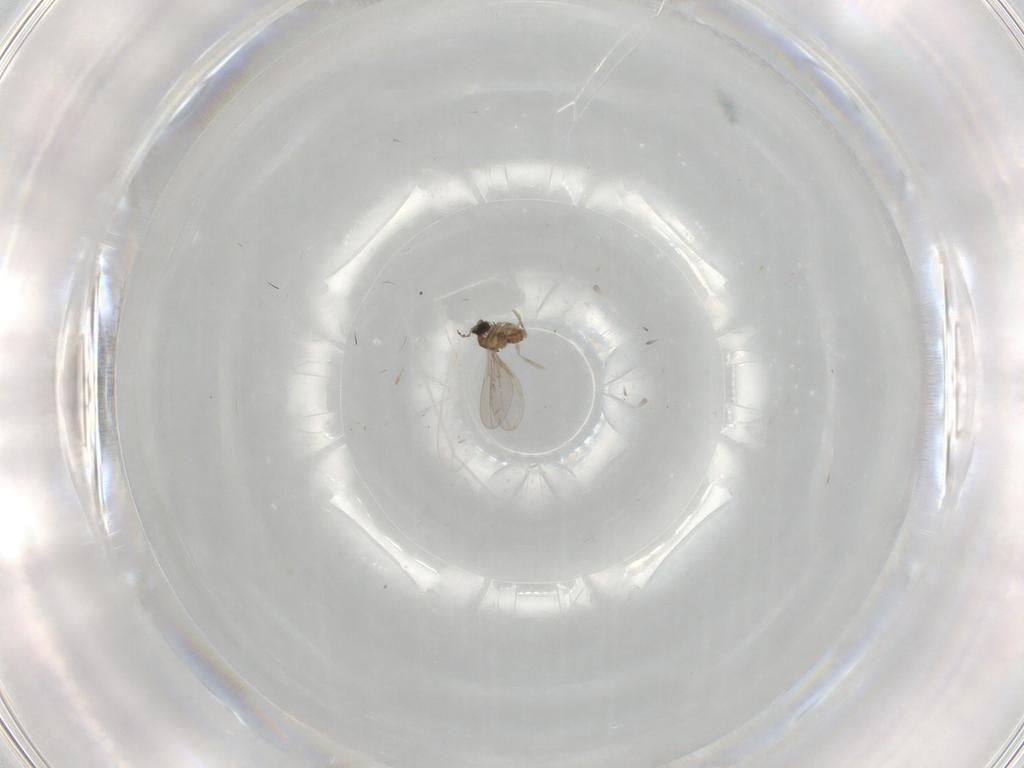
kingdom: Animalia
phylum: Arthropoda
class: Insecta
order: Diptera
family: Cecidomyiidae
